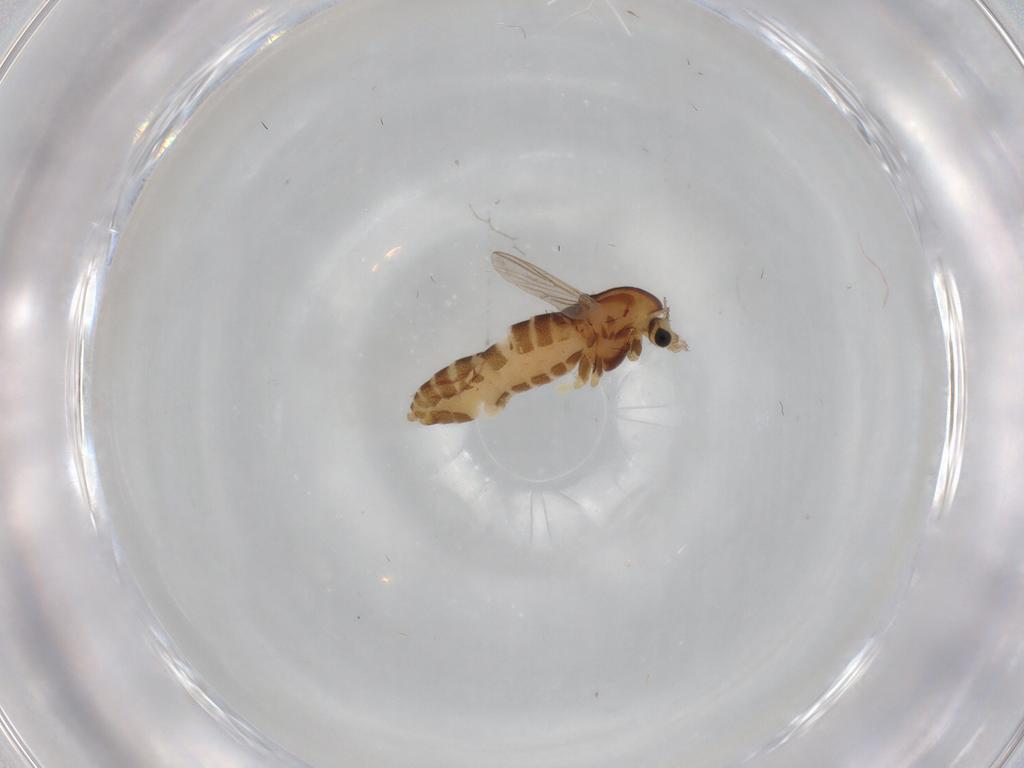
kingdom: Animalia
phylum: Arthropoda
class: Insecta
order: Diptera
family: Chironomidae
